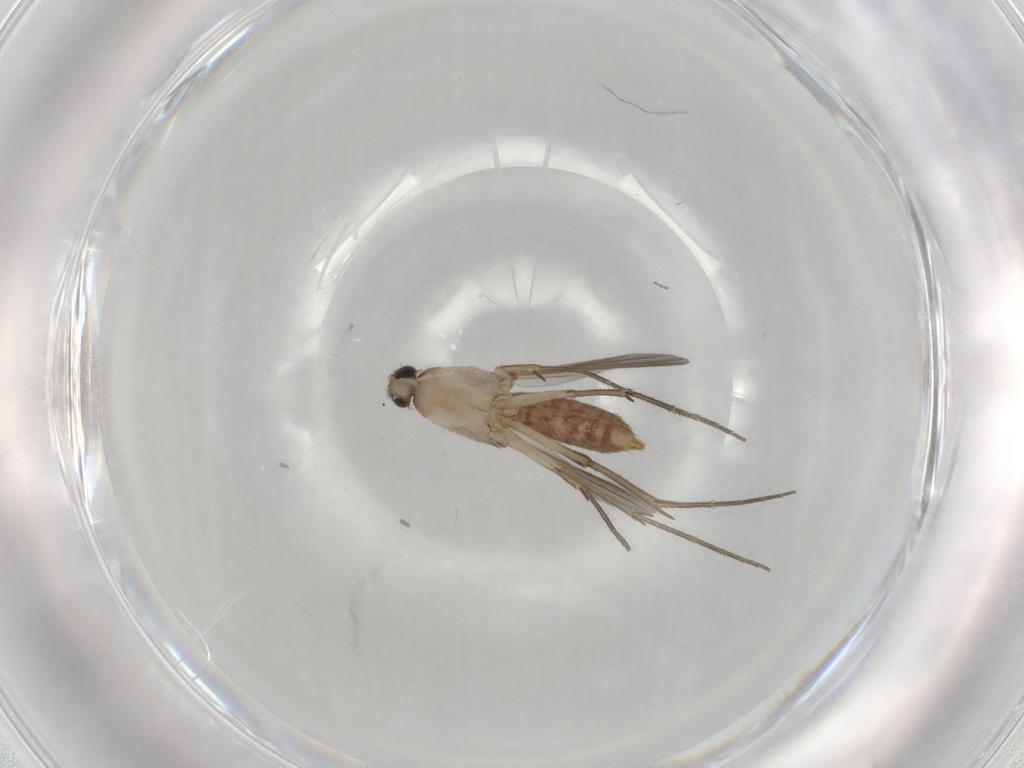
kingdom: Animalia
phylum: Arthropoda
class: Insecta
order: Diptera
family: Mycetophilidae
